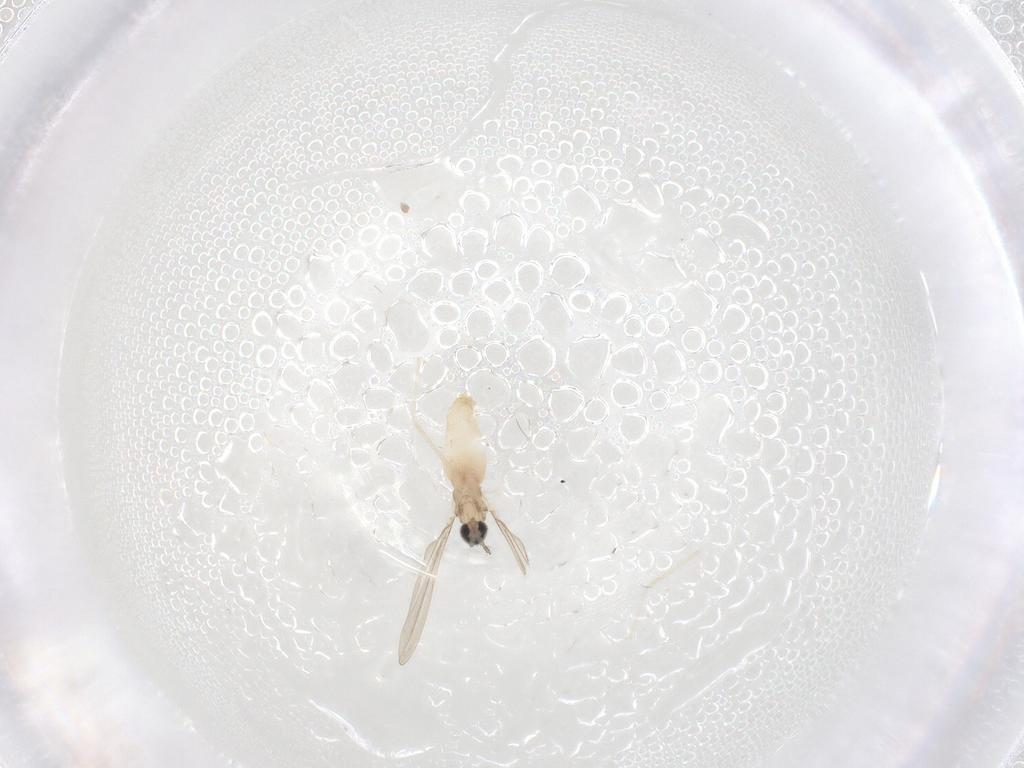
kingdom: Animalia
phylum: Arthropoda
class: Insecta
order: Diptera
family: Cecidomyiidae
